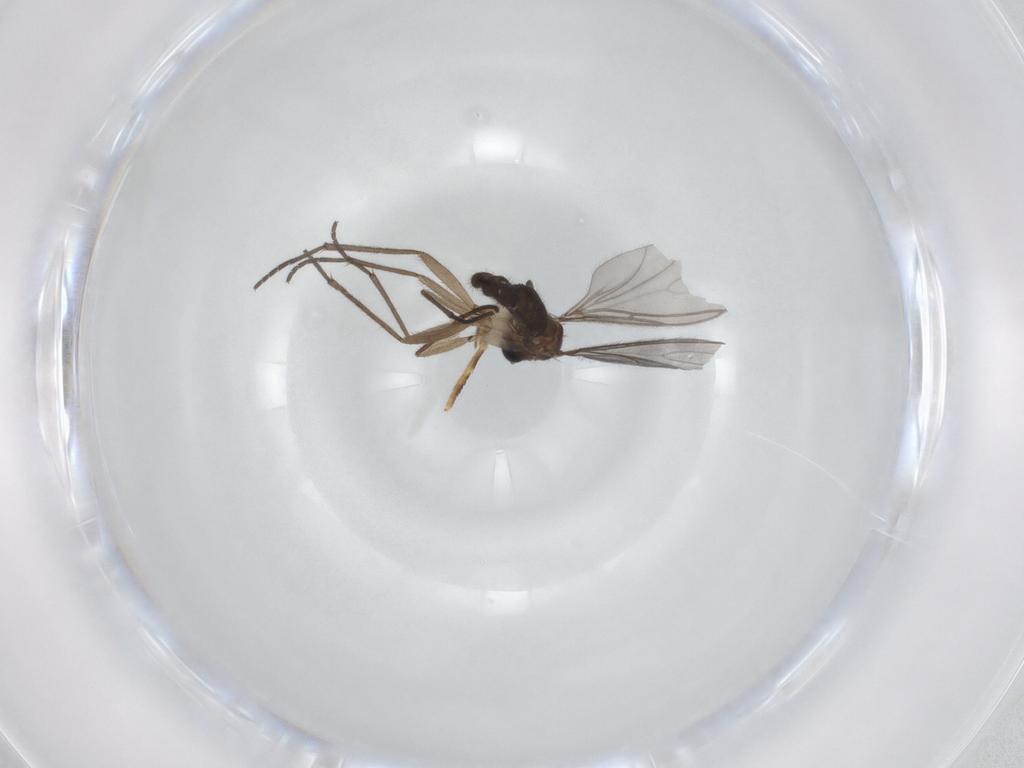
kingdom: Animalia
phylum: Arthropoda
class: Insecta
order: Diptera
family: Sciaridae
